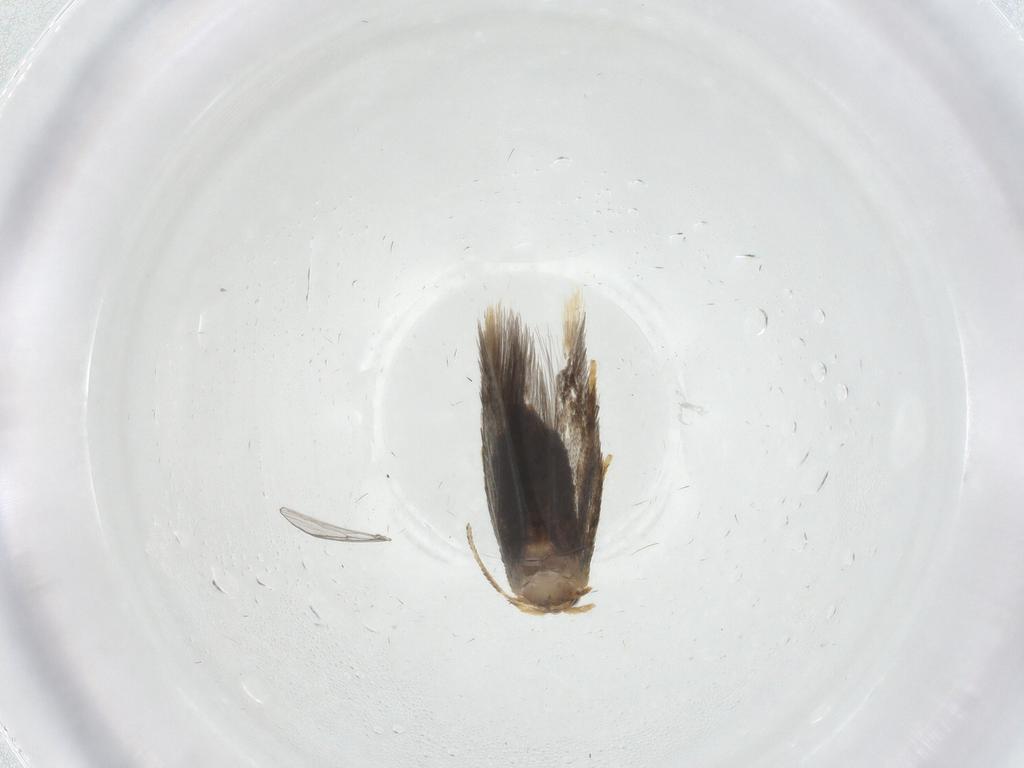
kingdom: Animalia
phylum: Arthropoda
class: Insecta
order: Lepidoptera
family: Nepticulidae
